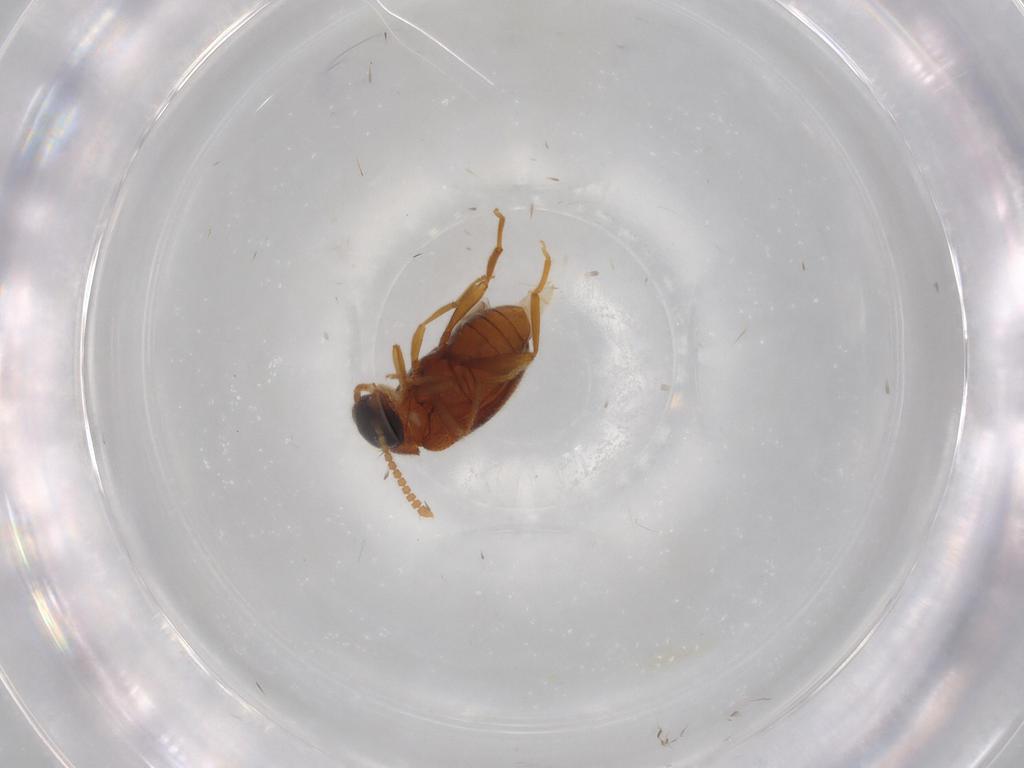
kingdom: Animalia
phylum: Arthropoda
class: Insecta
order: Coleoptera
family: Aderidae
